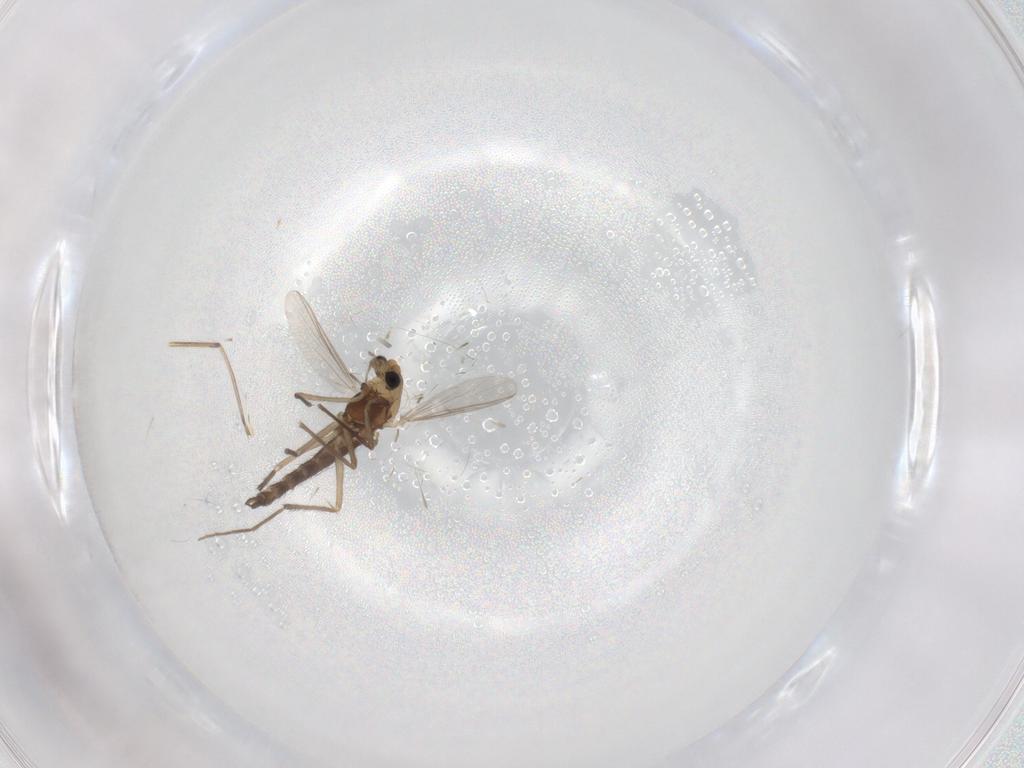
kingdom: Animalia
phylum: Arthropoda
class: Insecta
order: Diptera
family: Chironomidae
